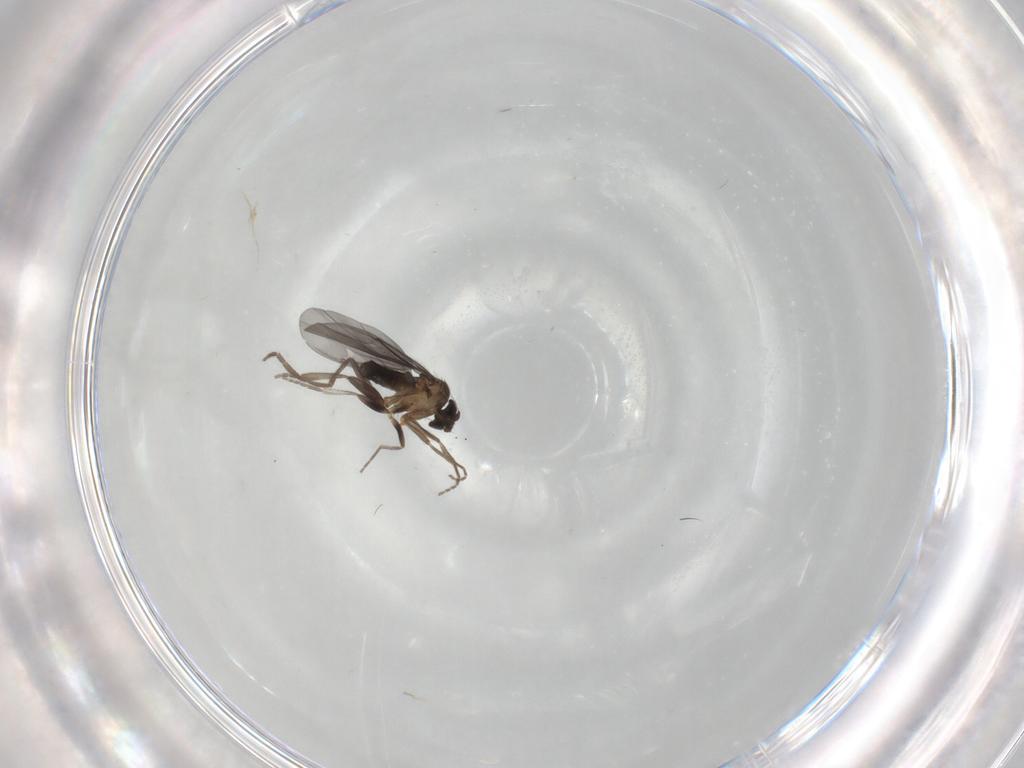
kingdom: Animalia
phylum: Arthropoda
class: Insecta
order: Diptera
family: Phoridae
